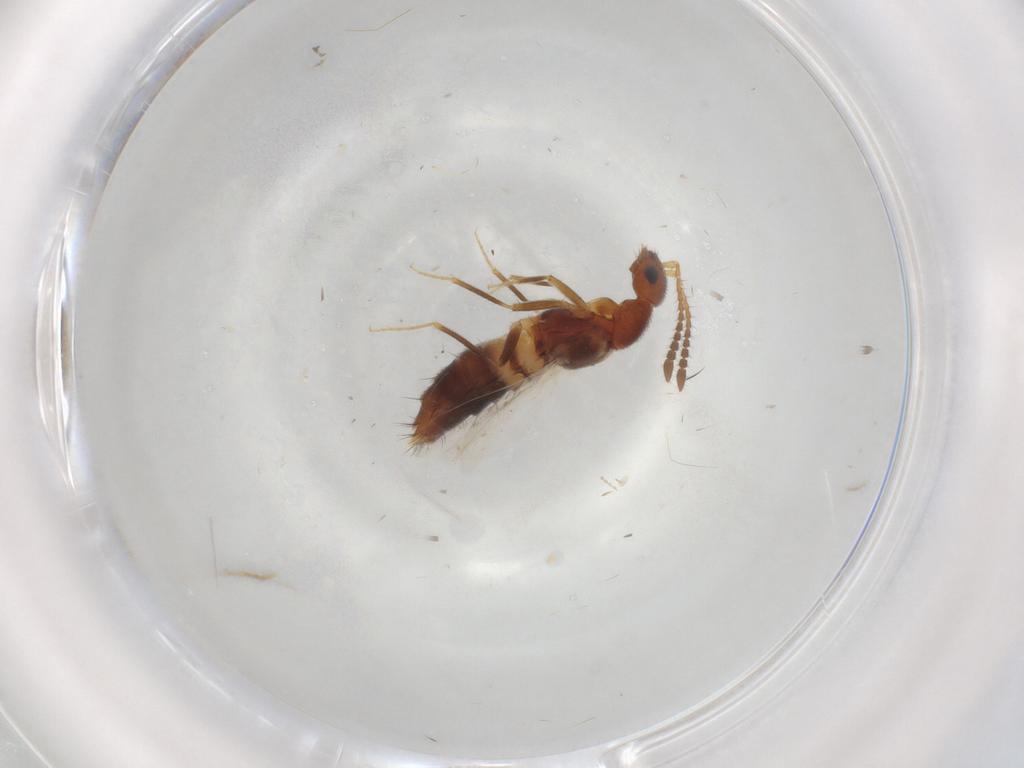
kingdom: Animalia
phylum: Arthropoda
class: Insecta
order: Coleoptera
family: Staphylinidae
